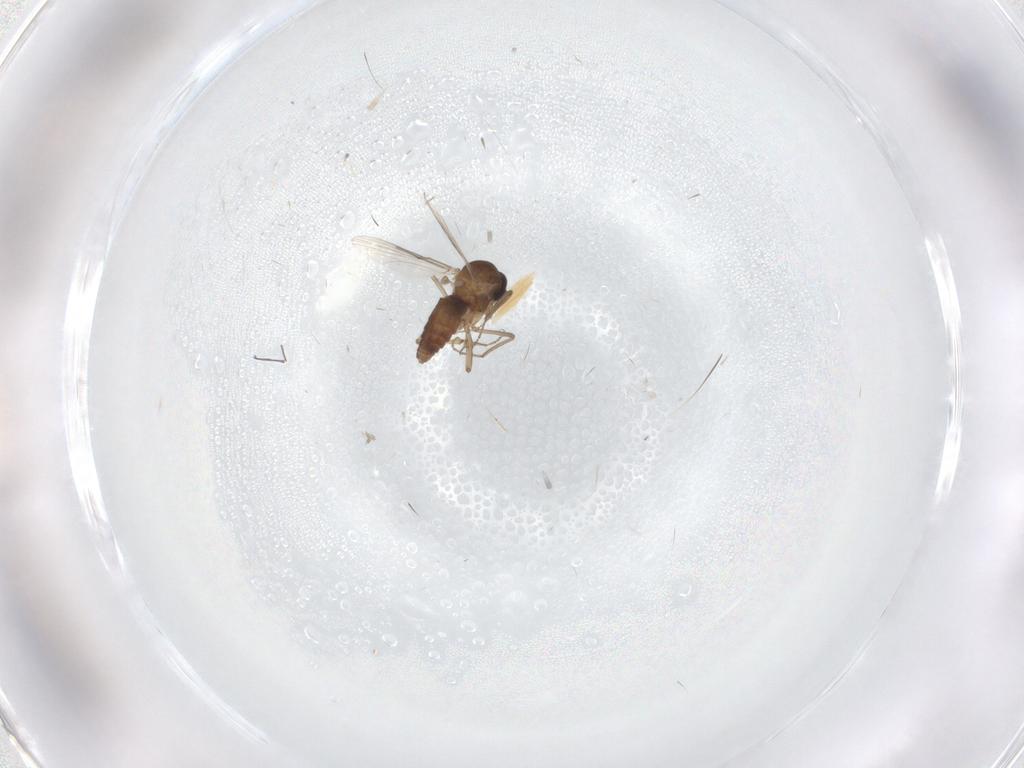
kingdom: Animalia
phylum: Arthropoda
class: Insecta
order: Diptera
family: Ceratopogonidae
